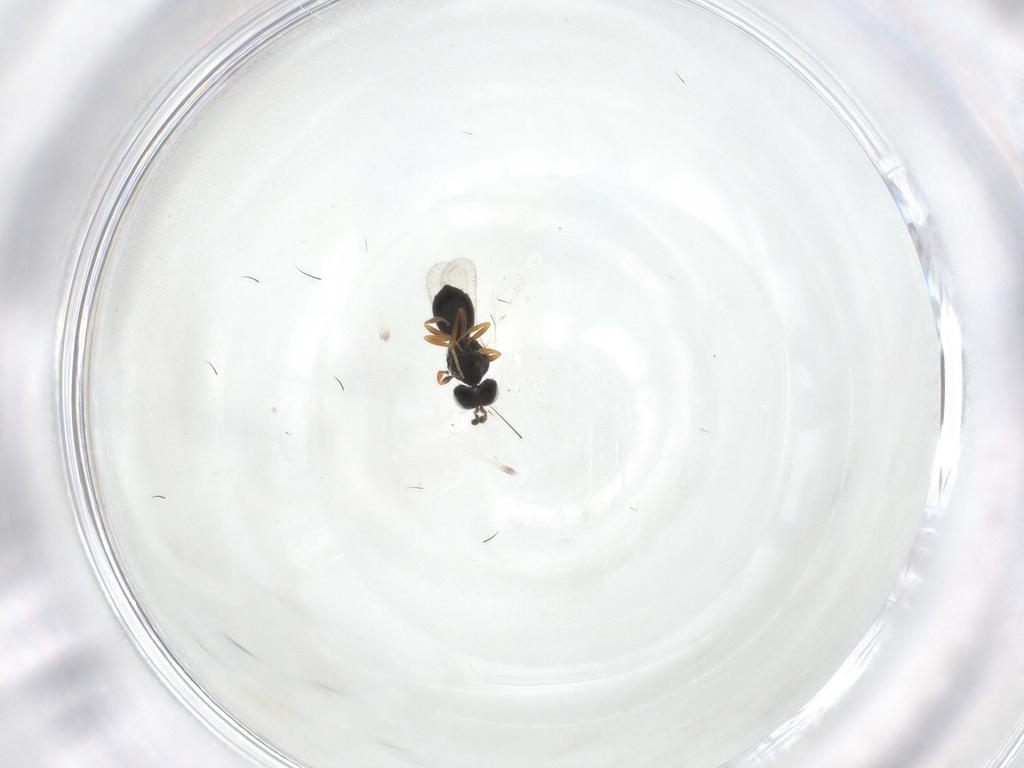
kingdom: Animalia
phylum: Arthropoda
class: Insecta
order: Hymenoptera
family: Scelionidae
